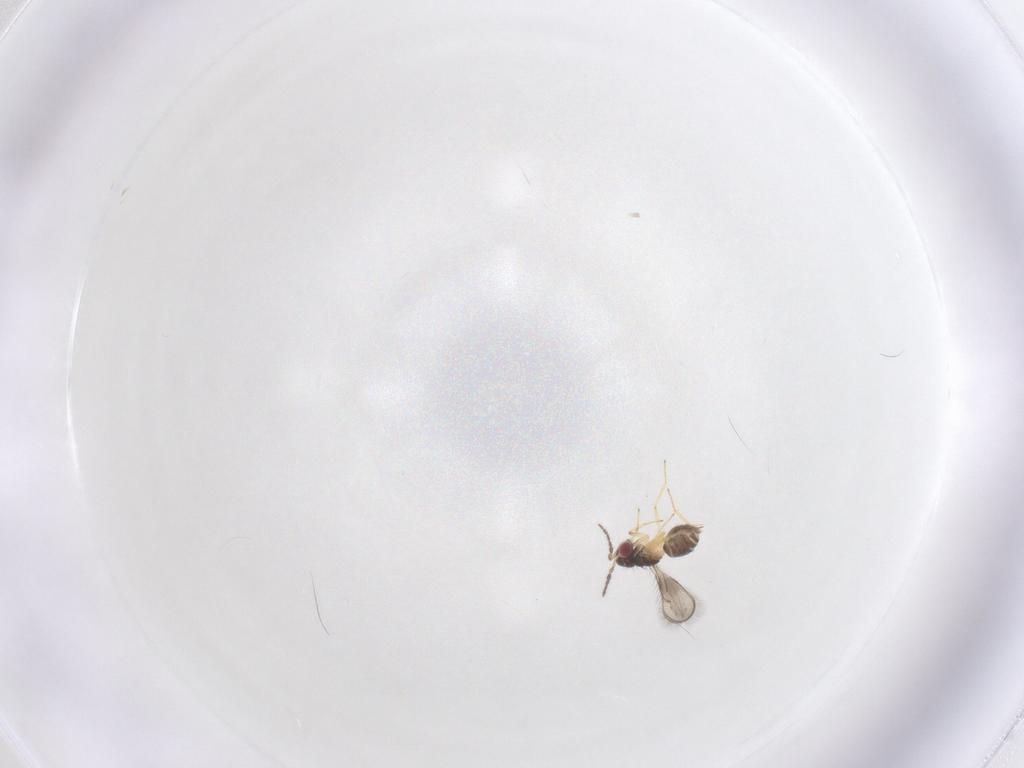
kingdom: Animalia
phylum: Arthropoda
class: Insecta
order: Hymenoptera
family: Eulophidae
